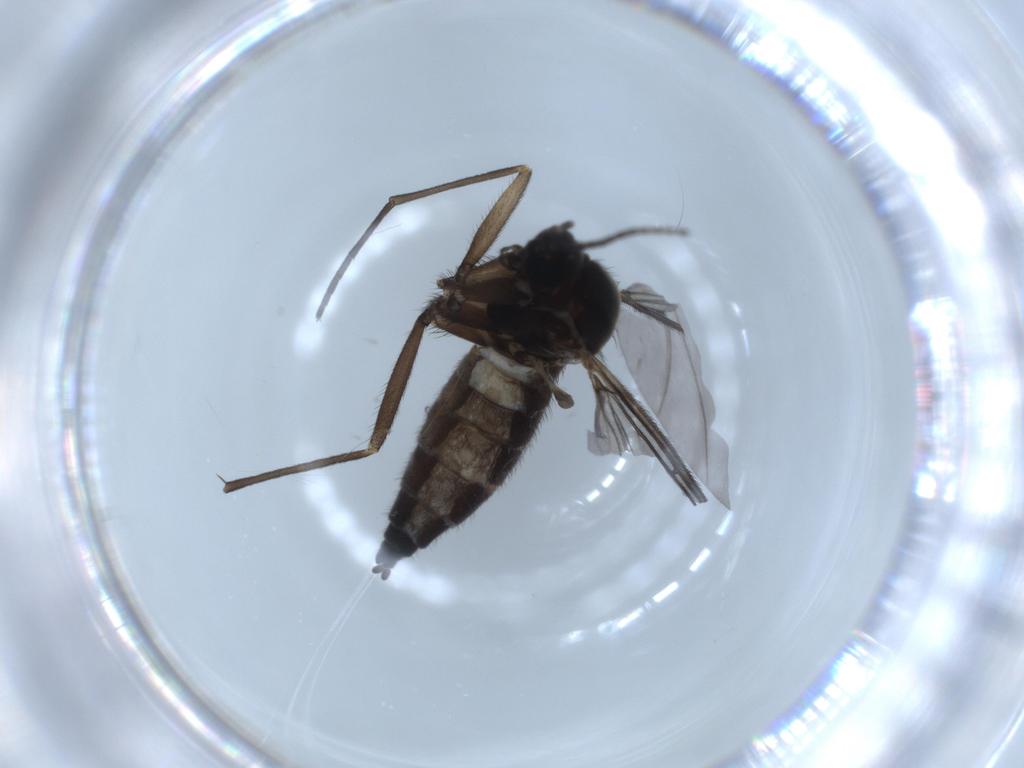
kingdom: Animalia
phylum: Arthropoda
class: Insecta
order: Diptera
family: Sciaridae
